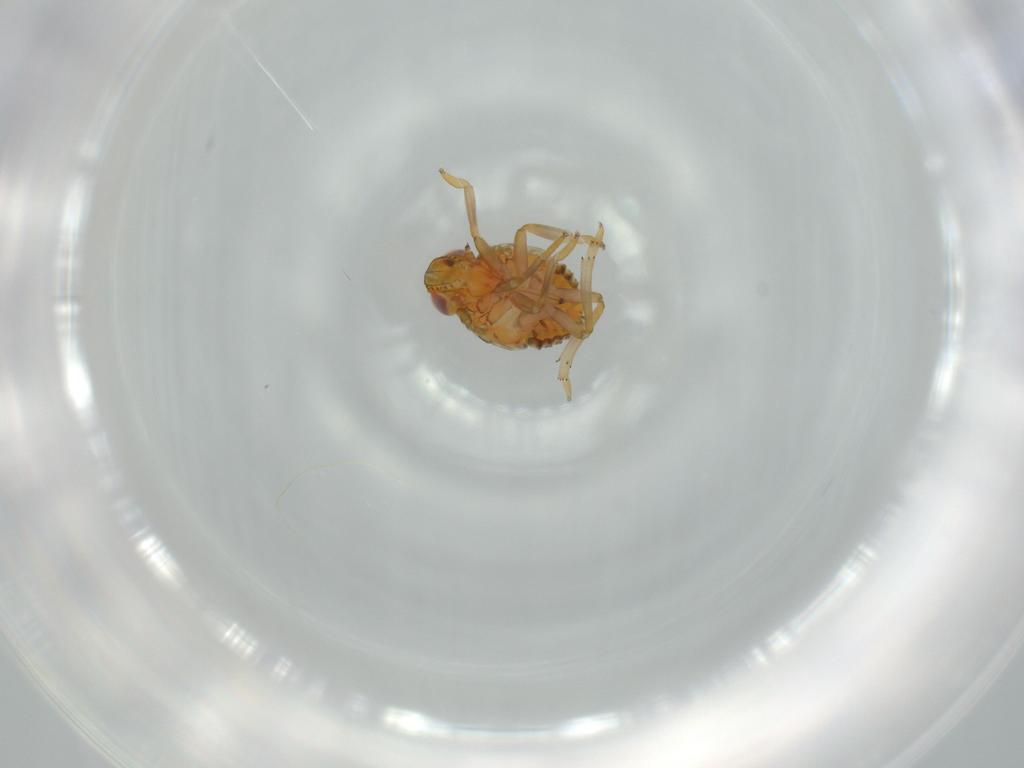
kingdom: Animalia
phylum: Arthropoda
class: Insecta
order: Hemiptera
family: Issidae
